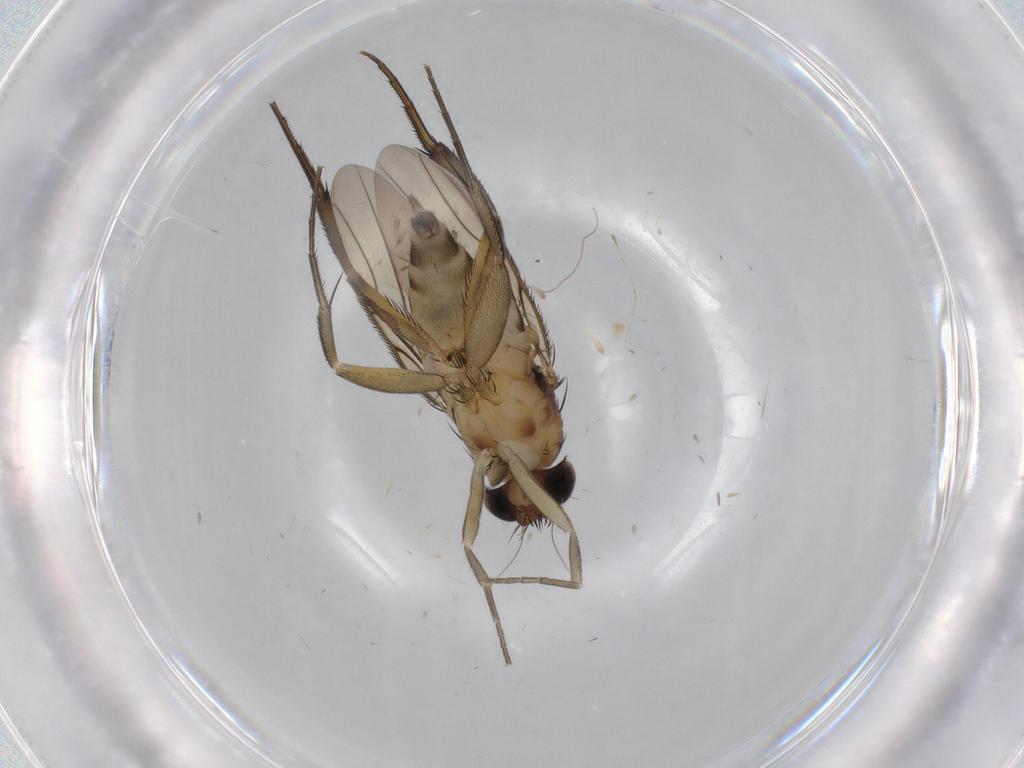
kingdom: Animalia
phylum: Arthropoda
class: Insecta
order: Diptera
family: Phoridae
